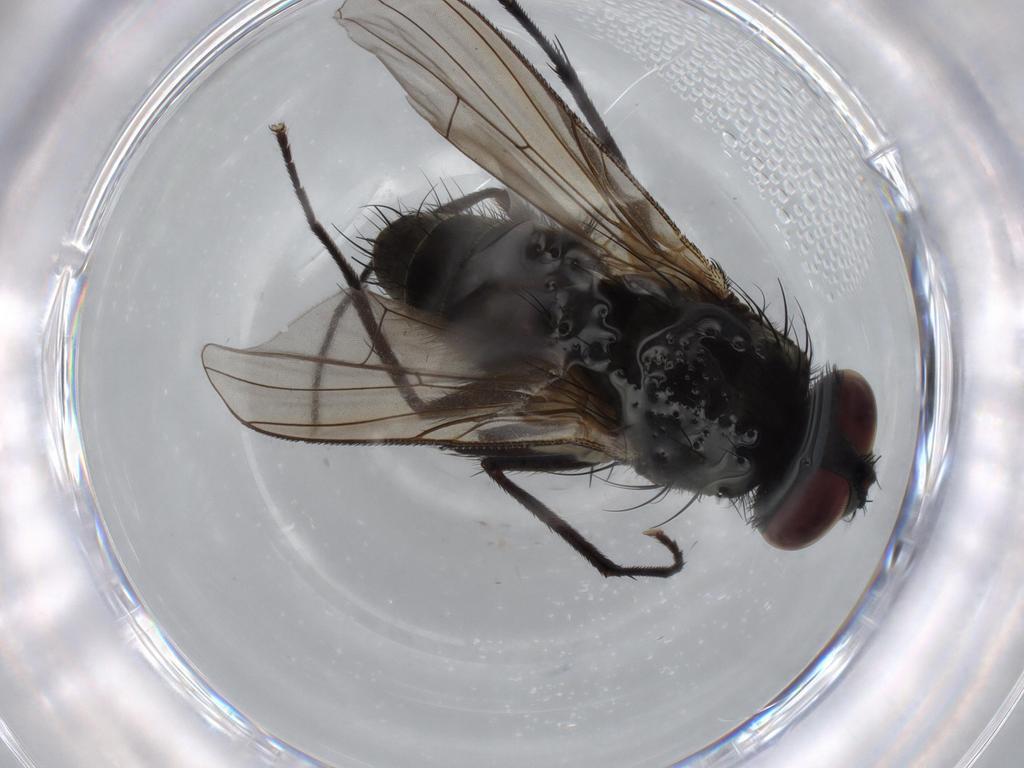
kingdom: Animalia
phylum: Arthropoda
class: Insecta
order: Diptera
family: Muscidae
